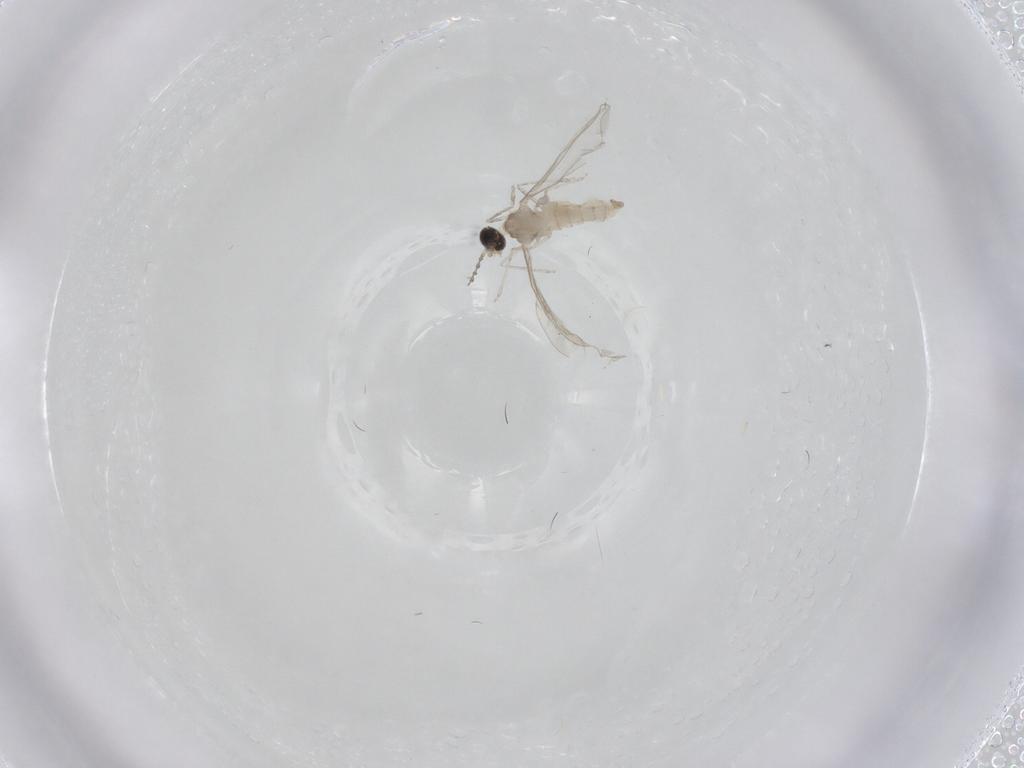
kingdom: Animalia
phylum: Arthropoda
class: Insecta
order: Diptera
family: Cecidomyiidae
